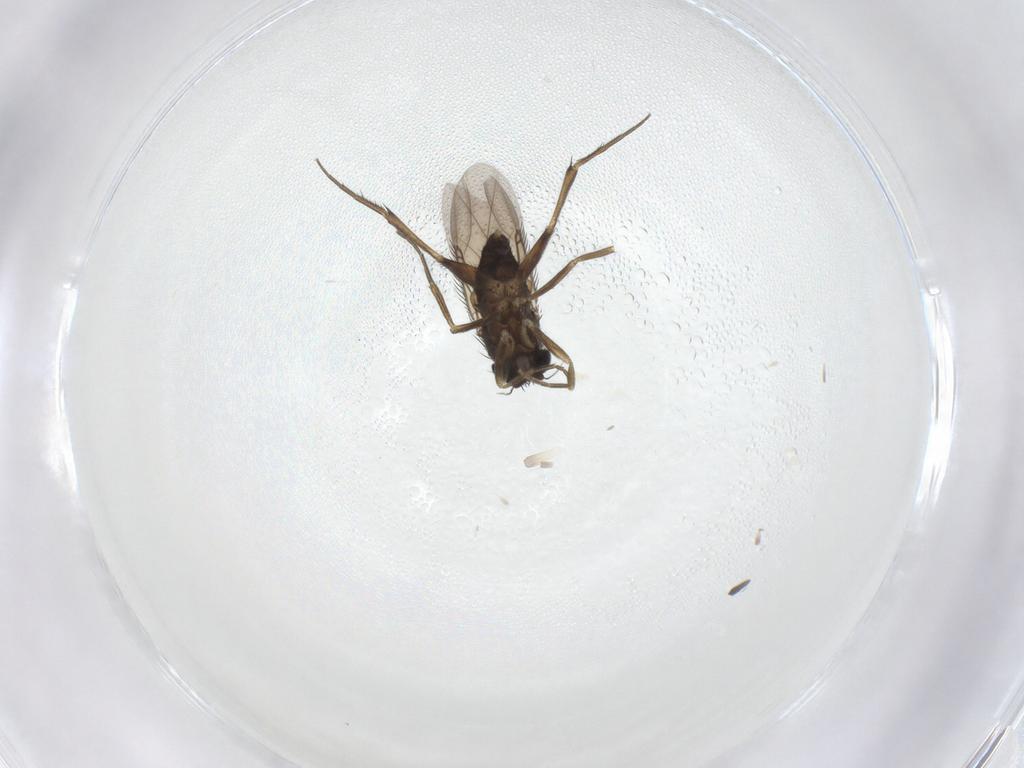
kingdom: Animalia
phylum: Arthropoda
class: Insecta
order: Diptera
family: Phoridae
